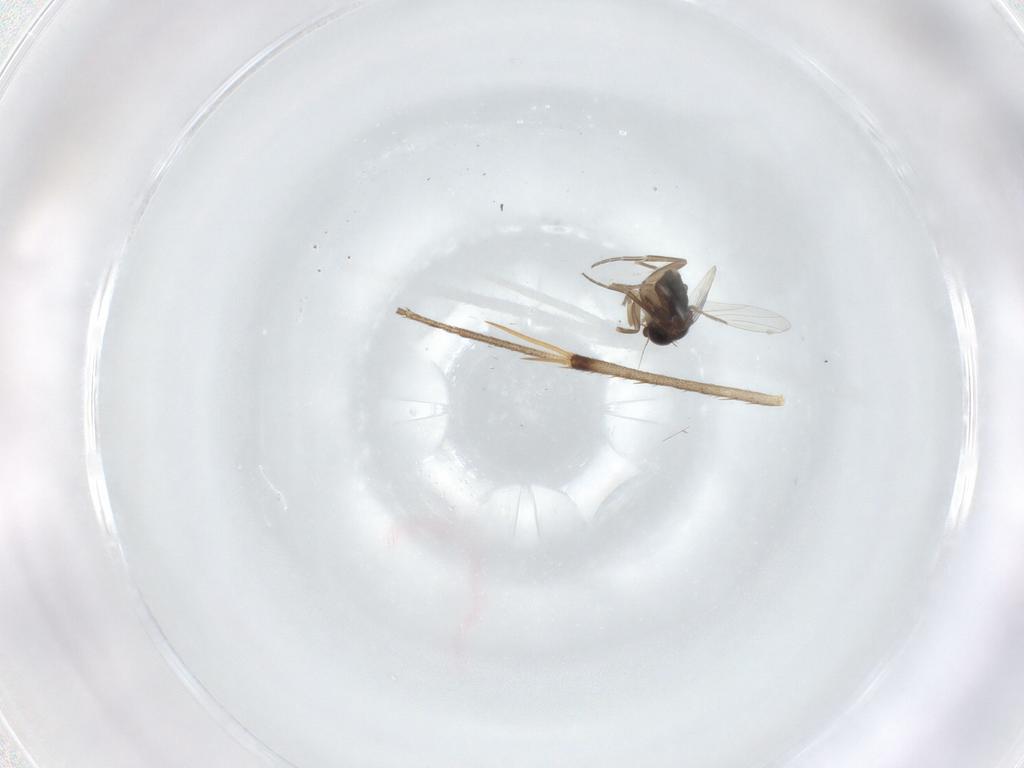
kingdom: Animalia
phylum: Arthropoda
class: Insecta
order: Diptera
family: Phoridae
